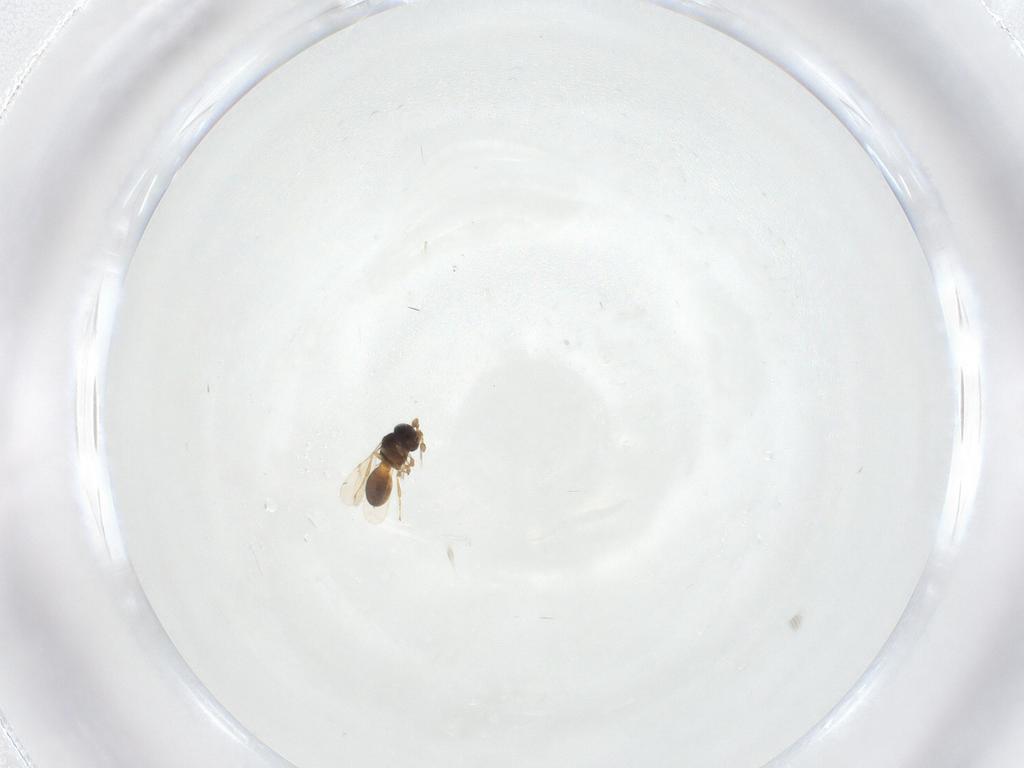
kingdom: Animalia
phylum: Arthropoda
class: Insecta
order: Hymenoptera
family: Scelionidae
